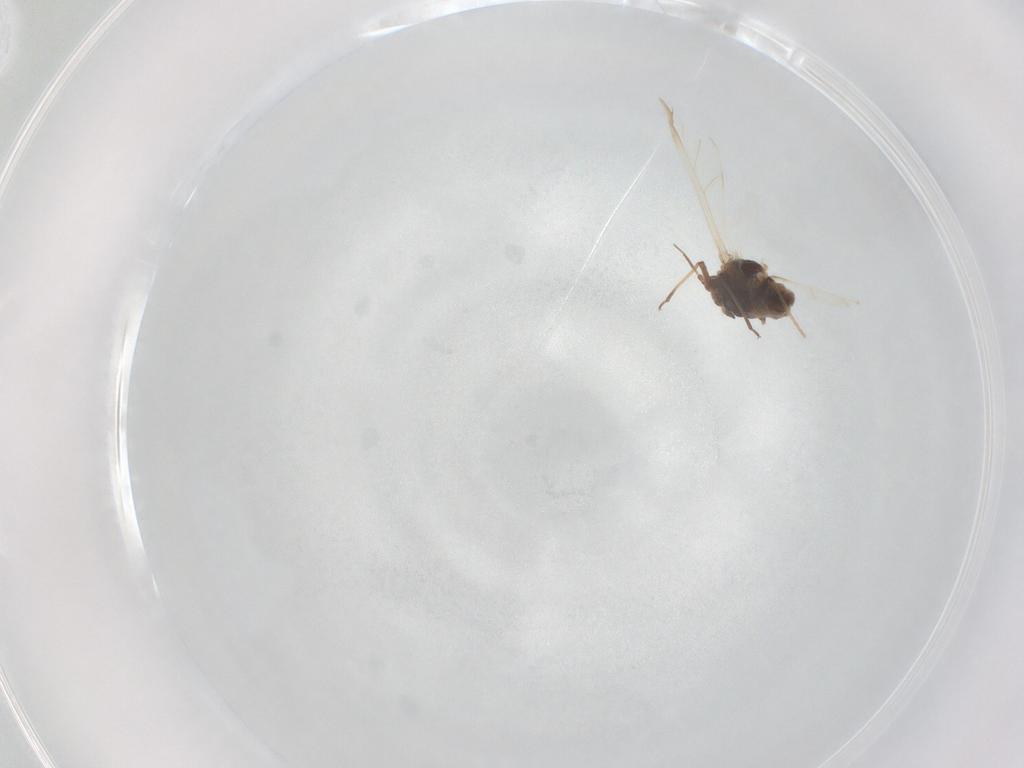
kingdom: Animalia
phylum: Arthropoda
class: Insecta
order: Hemiptera
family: Aphididae
